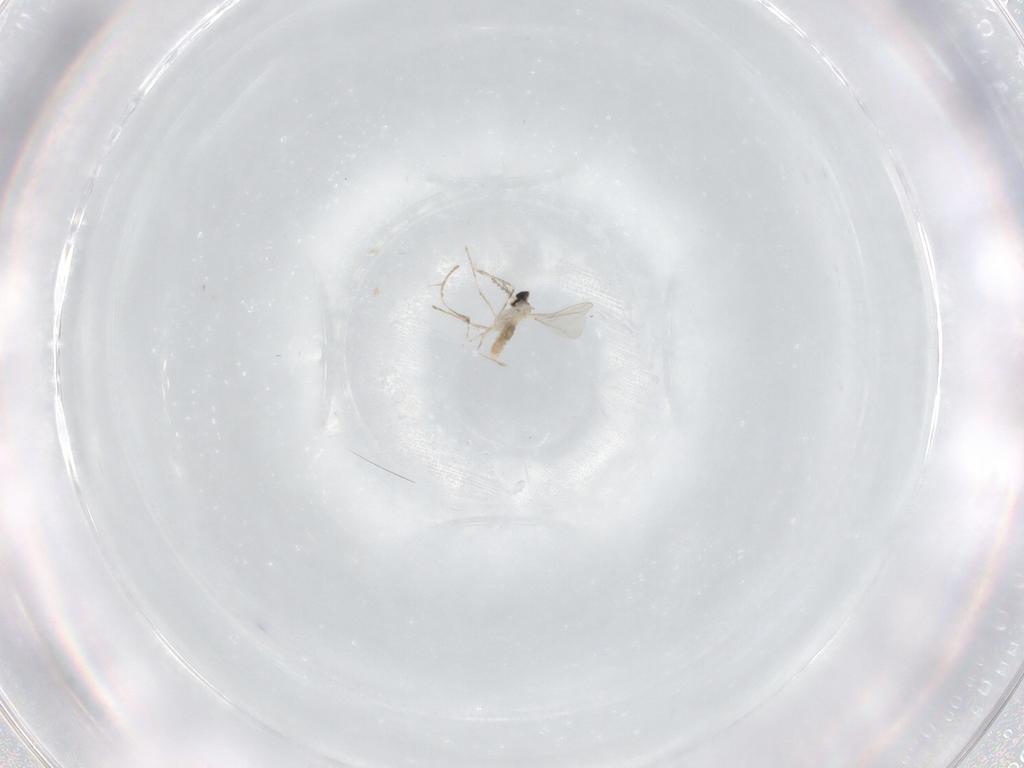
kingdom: Animalia
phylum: Arthropoda
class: Insecta
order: Diptera
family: Cecidomyiidae
